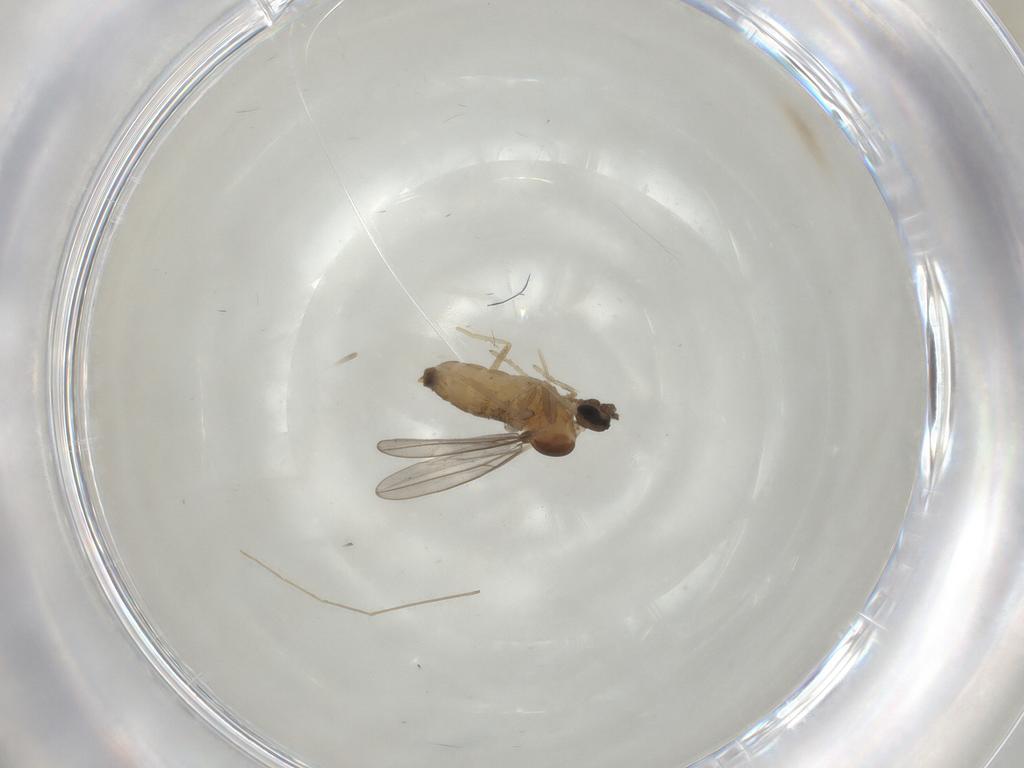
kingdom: Animalia
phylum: Arthropoda
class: Insecta
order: Diptera
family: Cecidomyiidae
